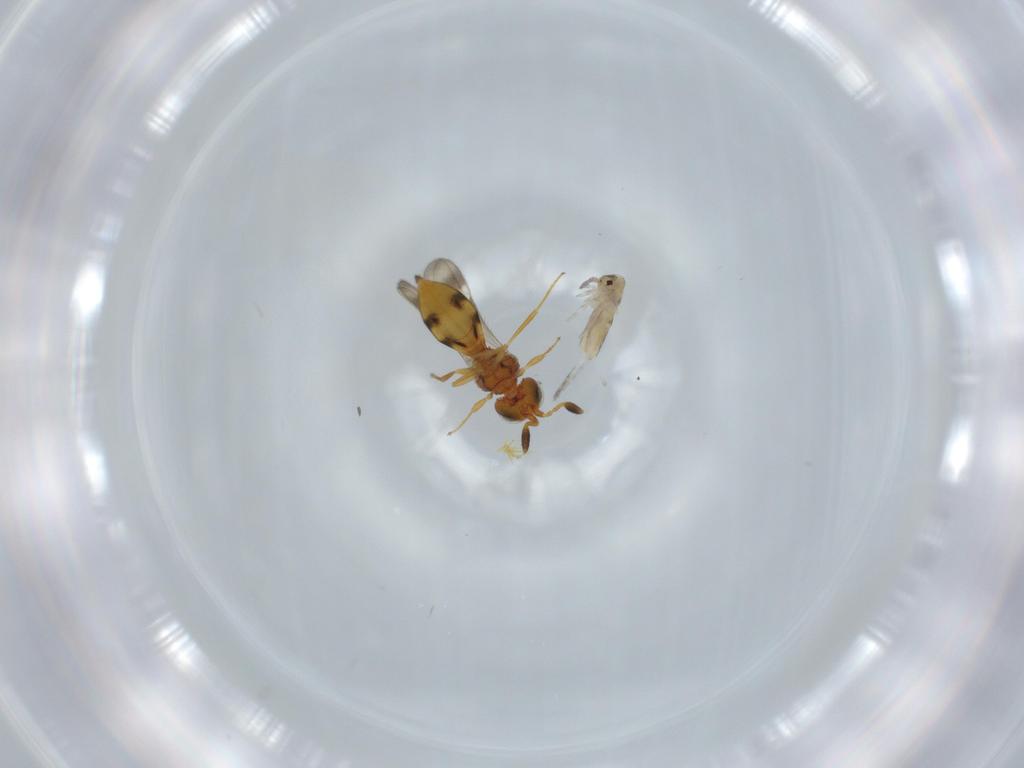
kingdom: Animalia
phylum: Arthropoda
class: Insecta
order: Hymenoptera
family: Scelionidae
